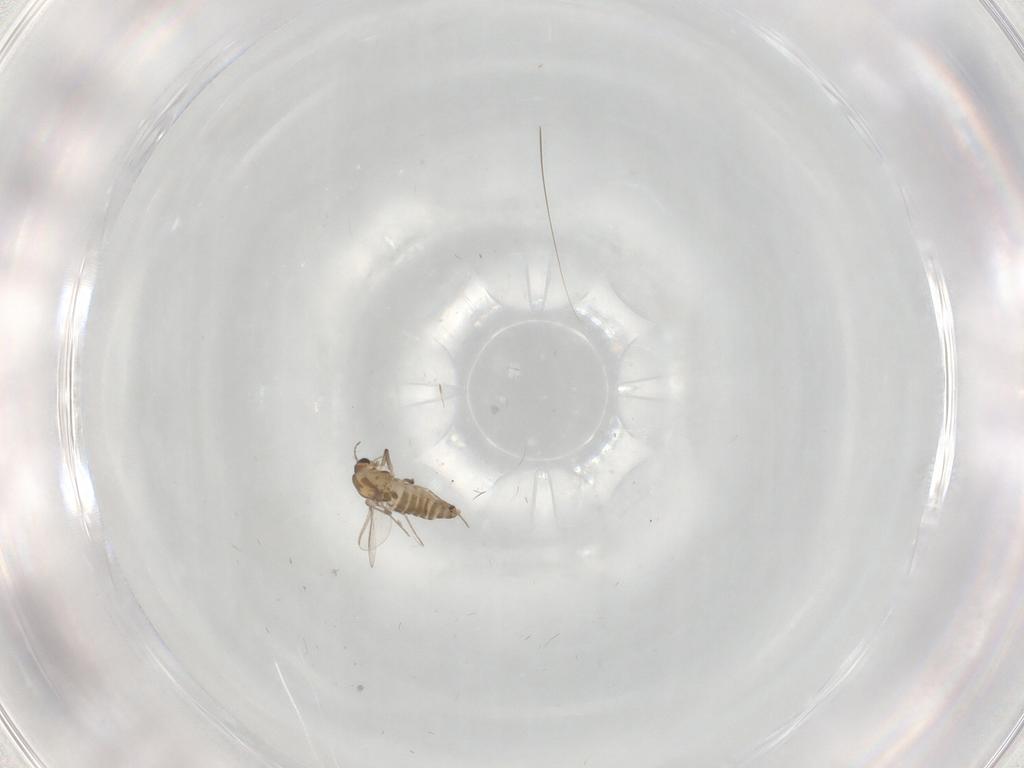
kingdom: Animalia
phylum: Arthropoda
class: Insecta
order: Diptera
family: Chironomidae
